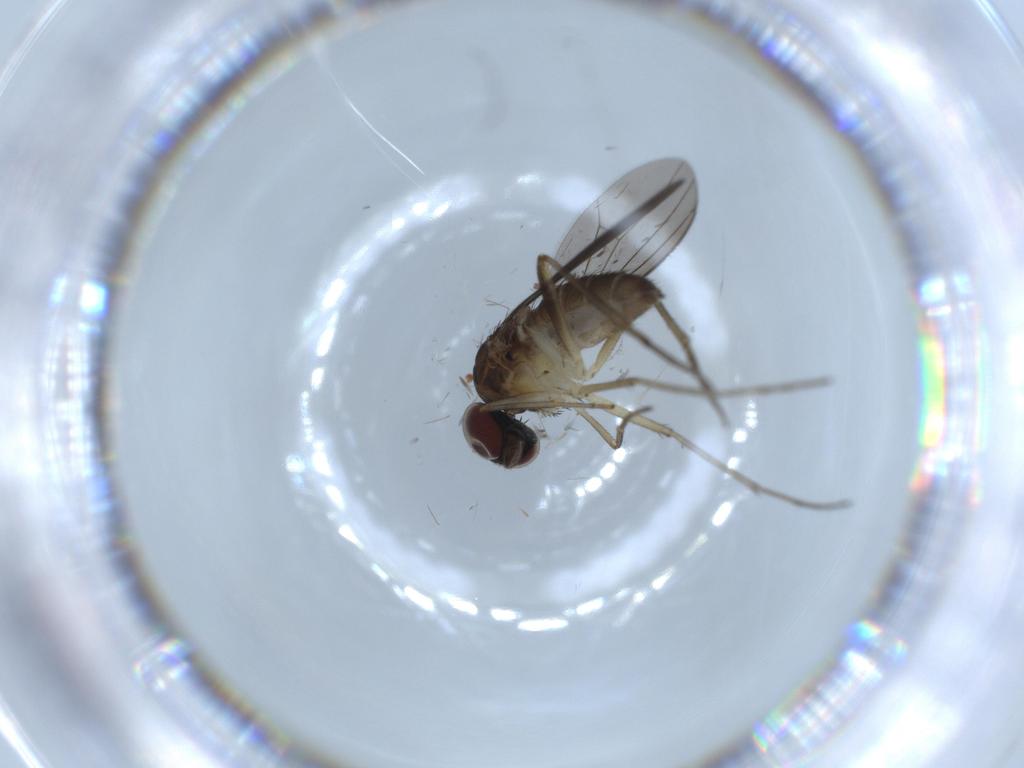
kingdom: Animalia
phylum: Arthropoda
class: Insecta
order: Diptera
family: Dolichopodidae
